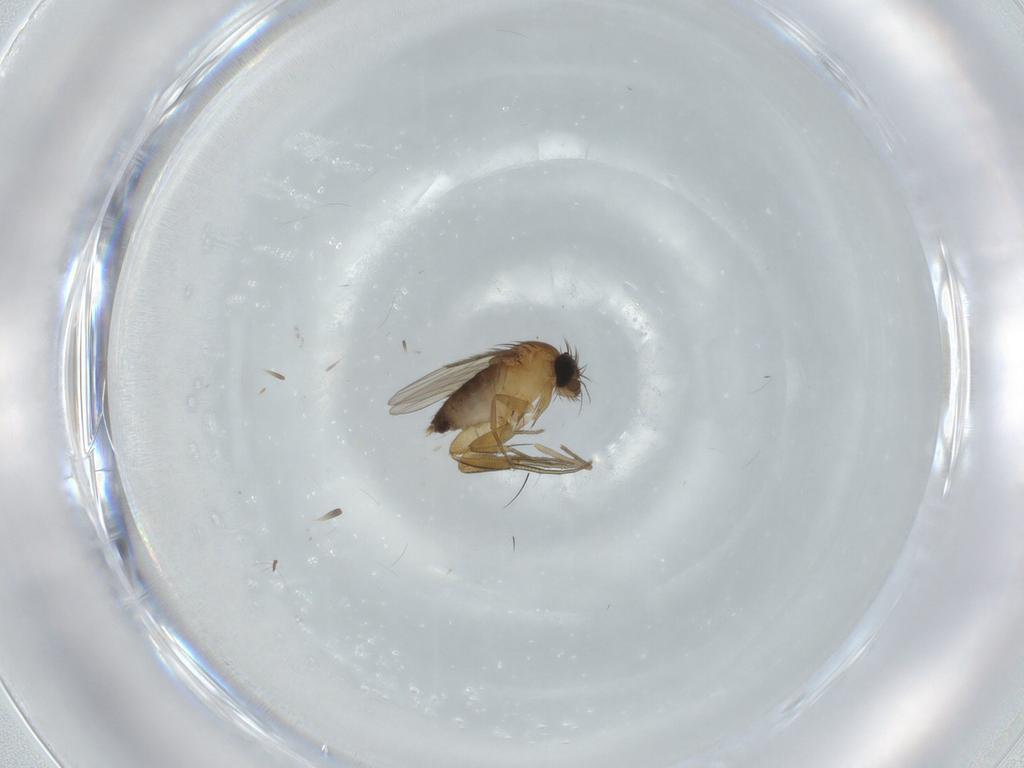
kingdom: Animalia
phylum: Arthropoda
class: Insecta
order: Diptera
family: Phoridae
